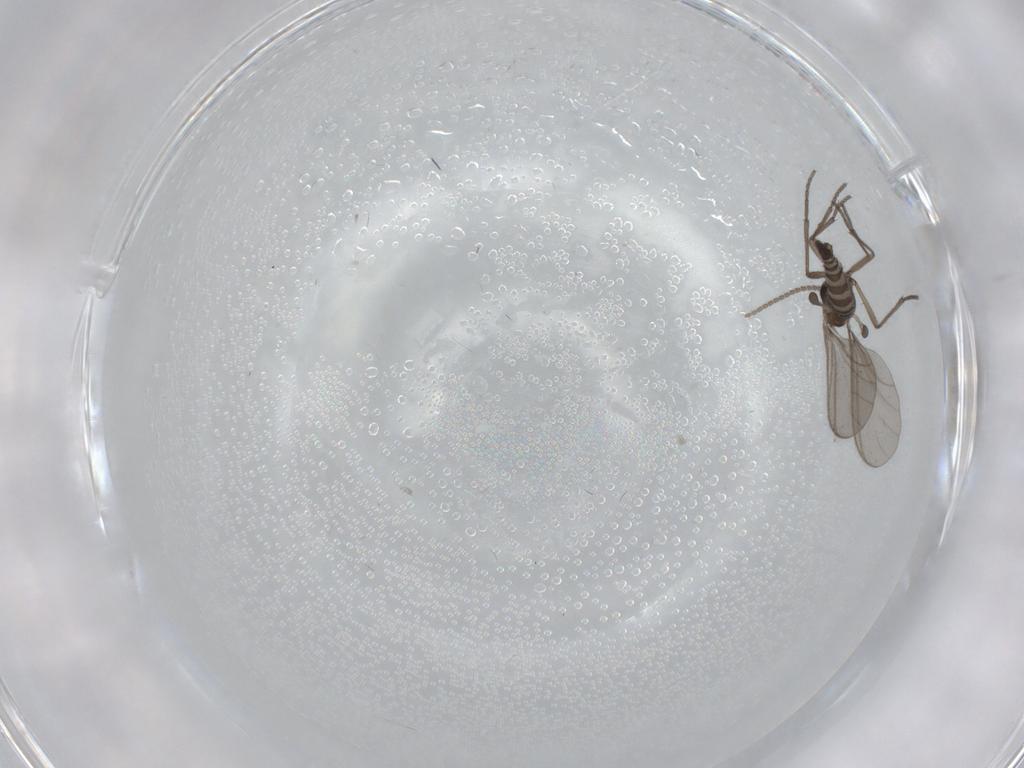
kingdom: Animalia
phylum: Arthropoda
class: Insecta
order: Diptera
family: Sciaridae
